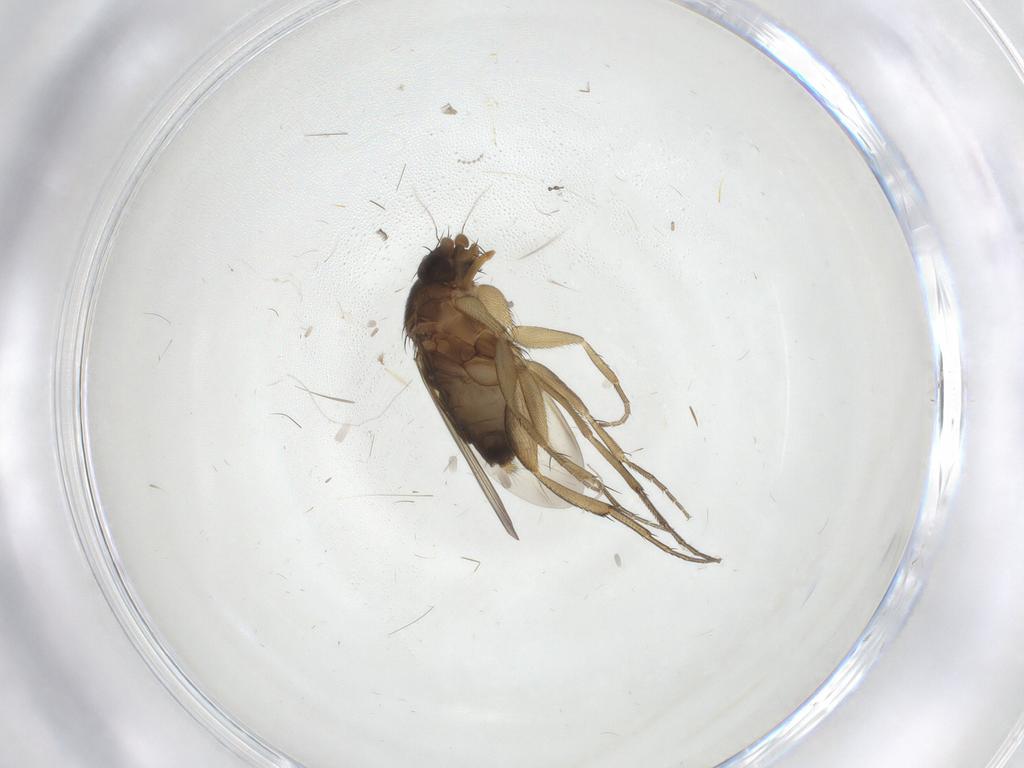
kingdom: Animalia
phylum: Arthropoda
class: Insecta
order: Diptera
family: Phoridae
